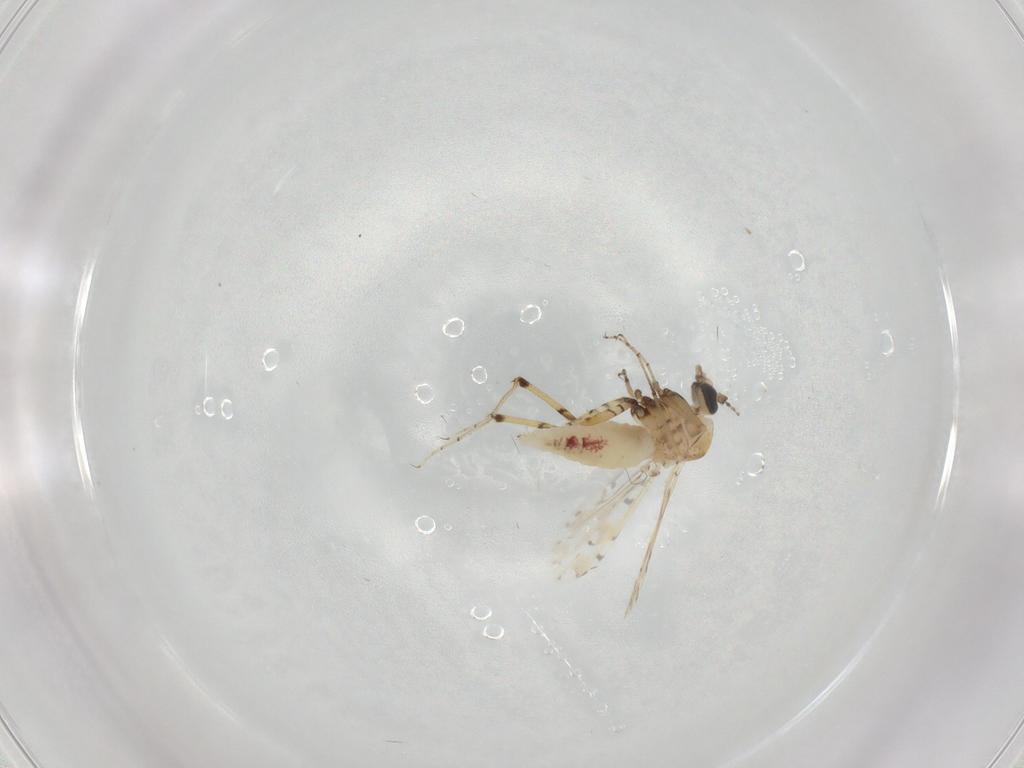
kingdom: Animalia
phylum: Arthropoda
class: Insecta
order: Diptera
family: Ceratopogonidae
